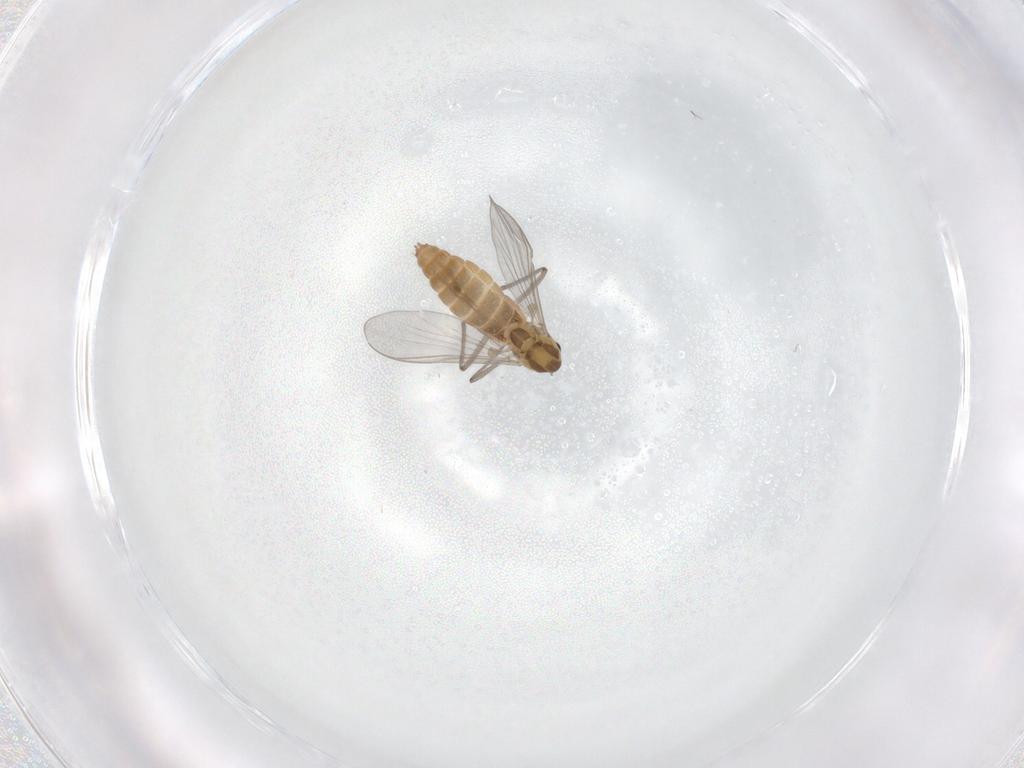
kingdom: Animalia
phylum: Arthropoda
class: Insecta
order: Diptera
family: Chironomidae
